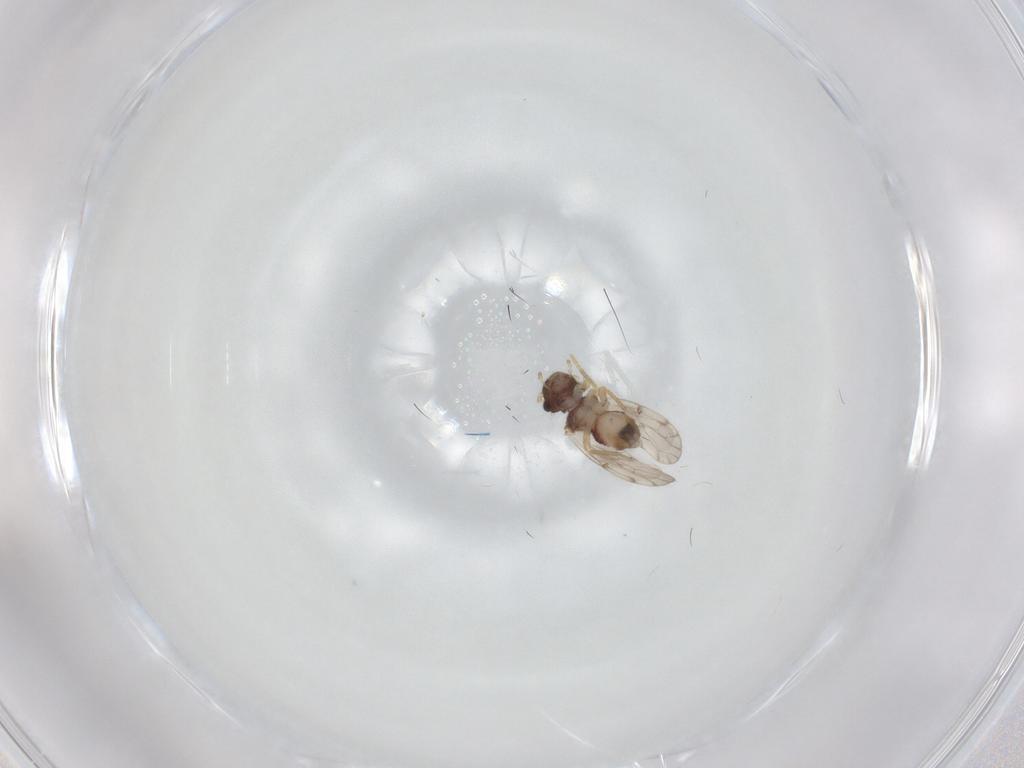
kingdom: Animalia
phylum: Arthropoda
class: Insecta
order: Psocodea
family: Peripsocidae
